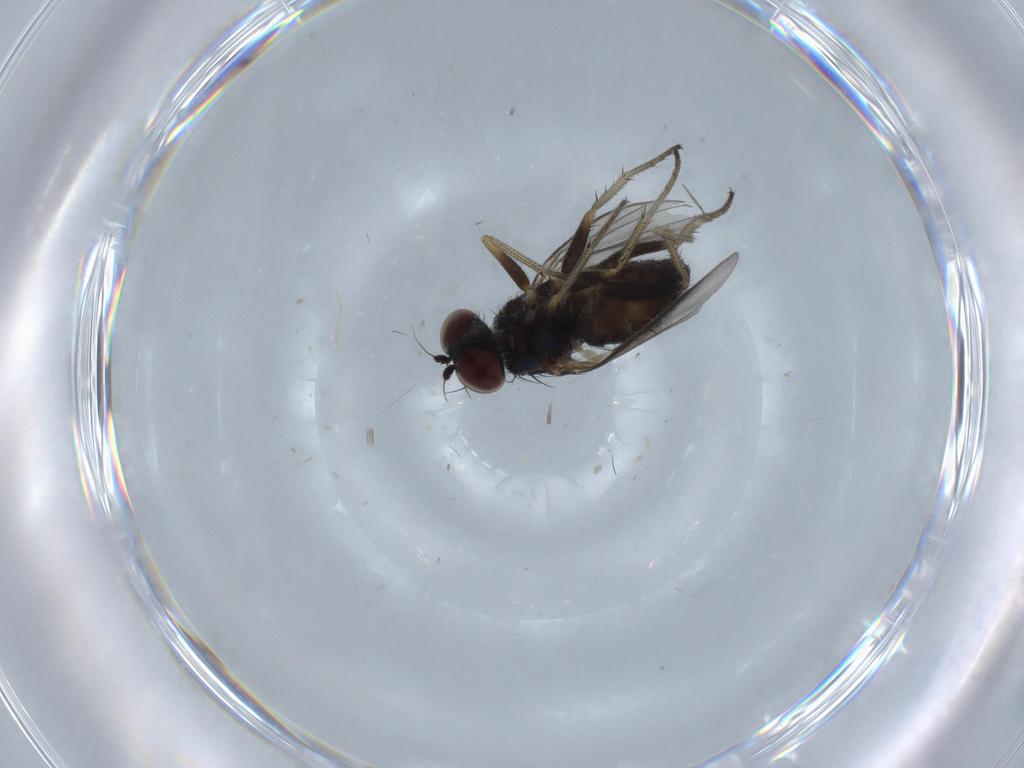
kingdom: Animalia
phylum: Arthropoda
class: Insecta
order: Diptera
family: Dolichopodidae
